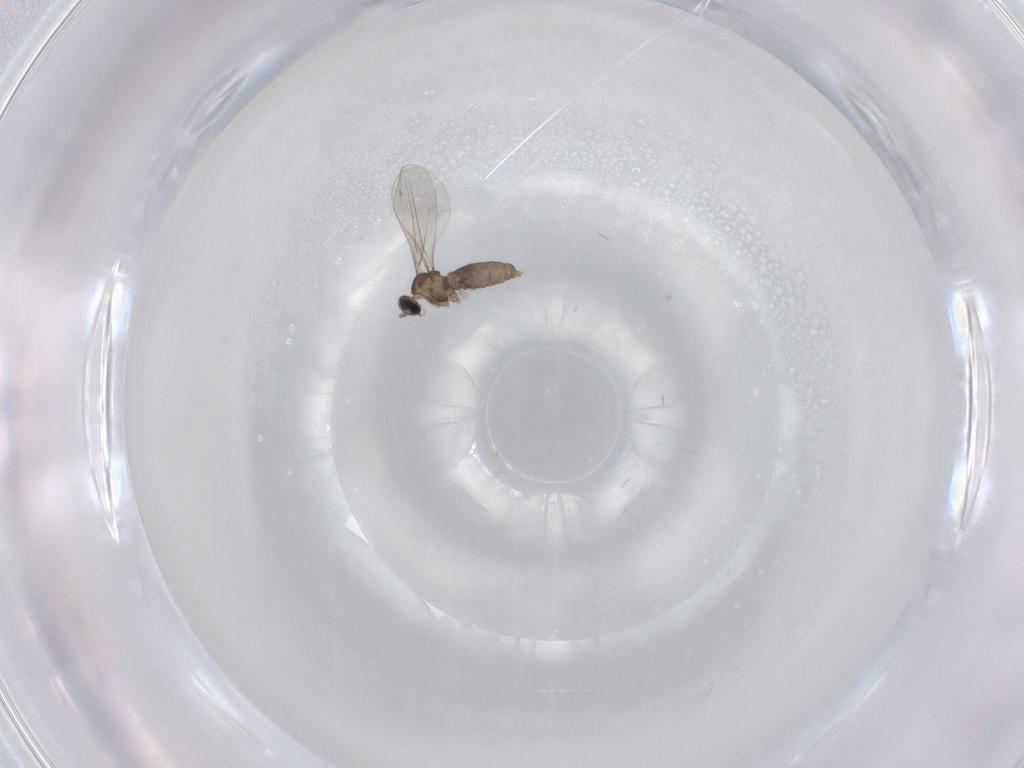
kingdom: Animalia
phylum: Arthropoda
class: Insecta
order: Diptera
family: Cecidomyiidae
